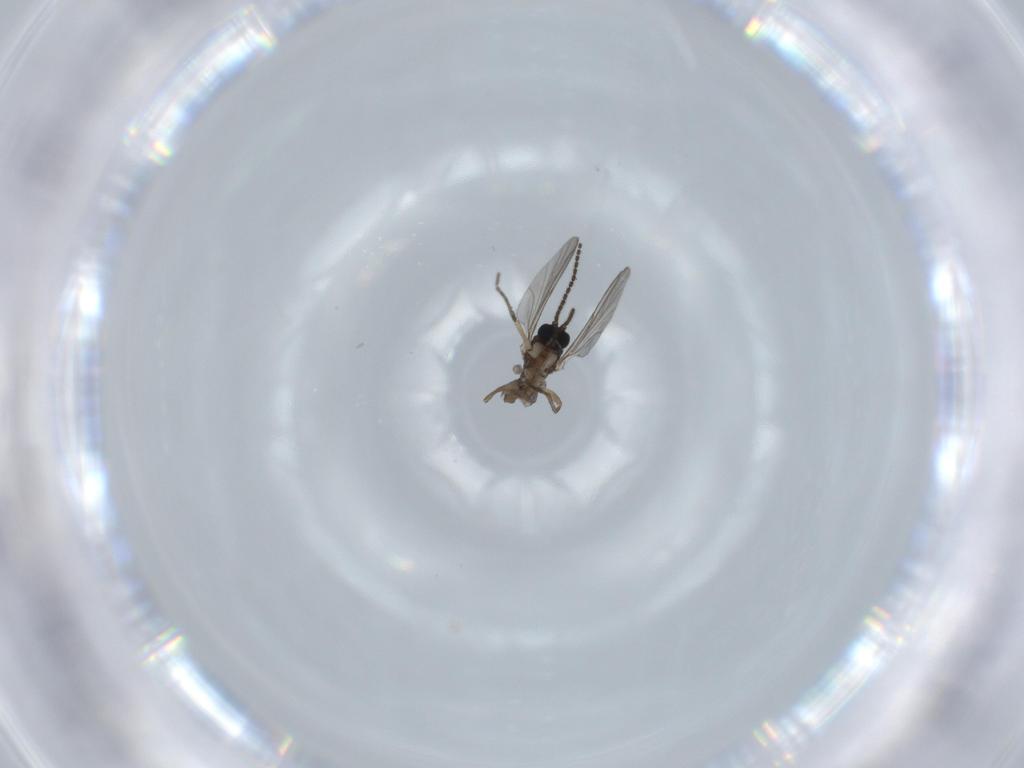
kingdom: Animalia
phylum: Arthropoda
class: Insecta
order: Diptera
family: Sciaridae
